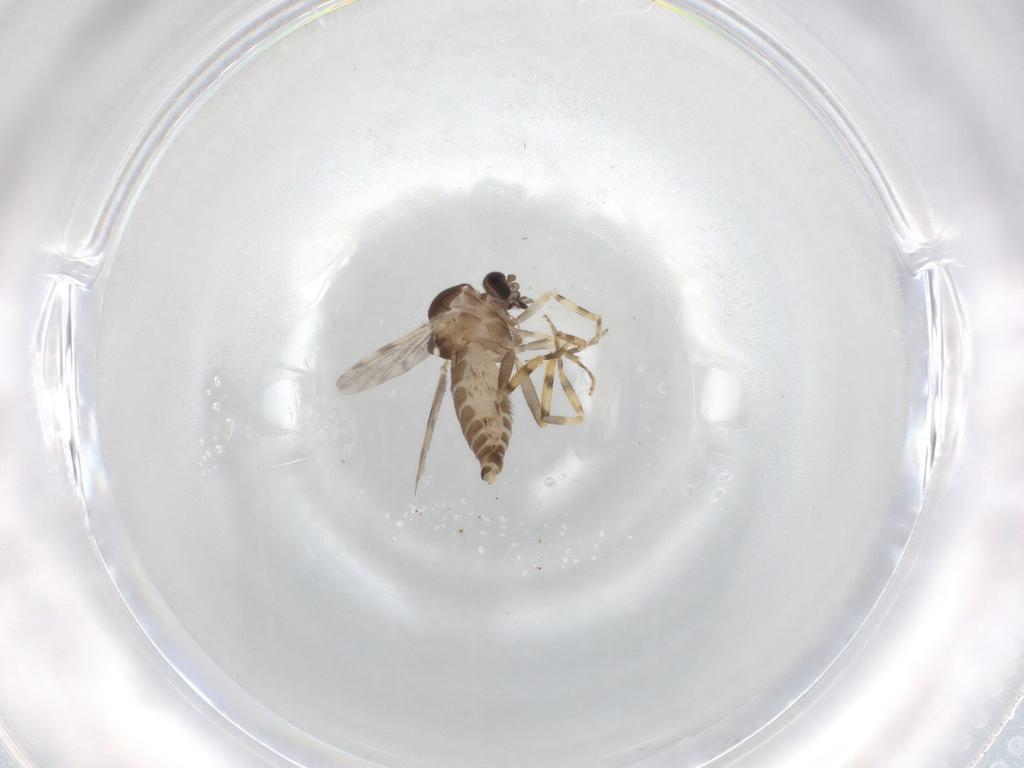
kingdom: Animalia
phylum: Arthropoda
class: Insecta
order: Diptera
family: Ceratopogonidae
